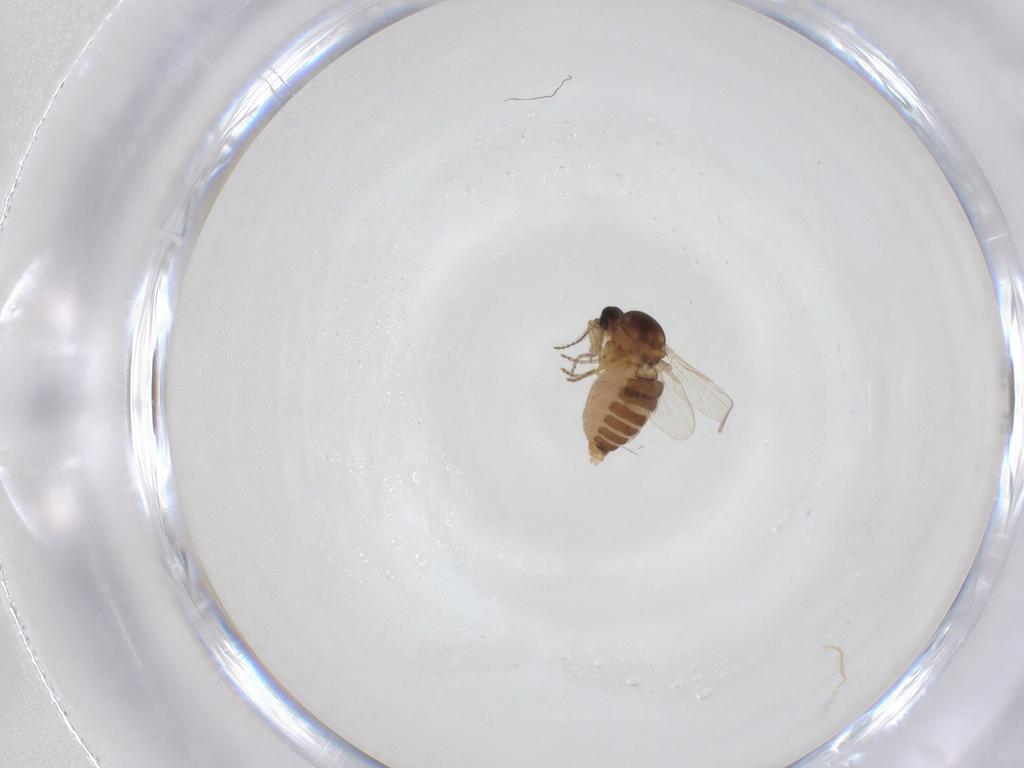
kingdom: Animalia
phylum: Arthropoda
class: Insecta
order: Diptera
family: Ceratopogonidae
